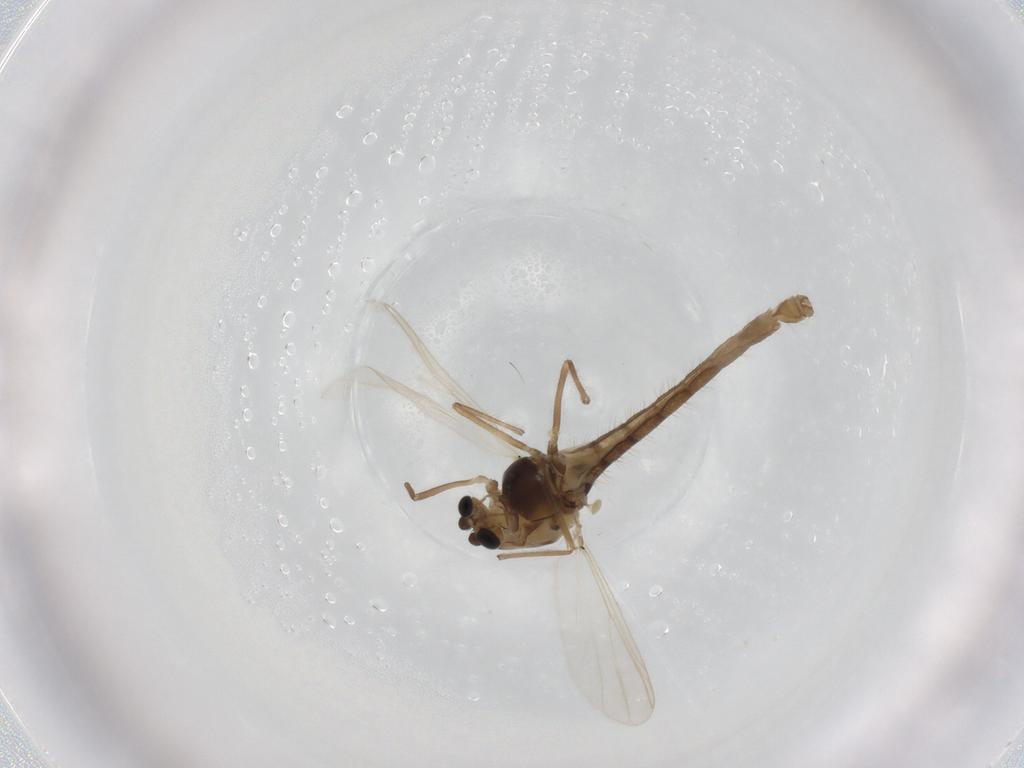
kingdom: Animalia
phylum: Arthropoda
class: Insecta
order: Diptera
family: Chironomidae
